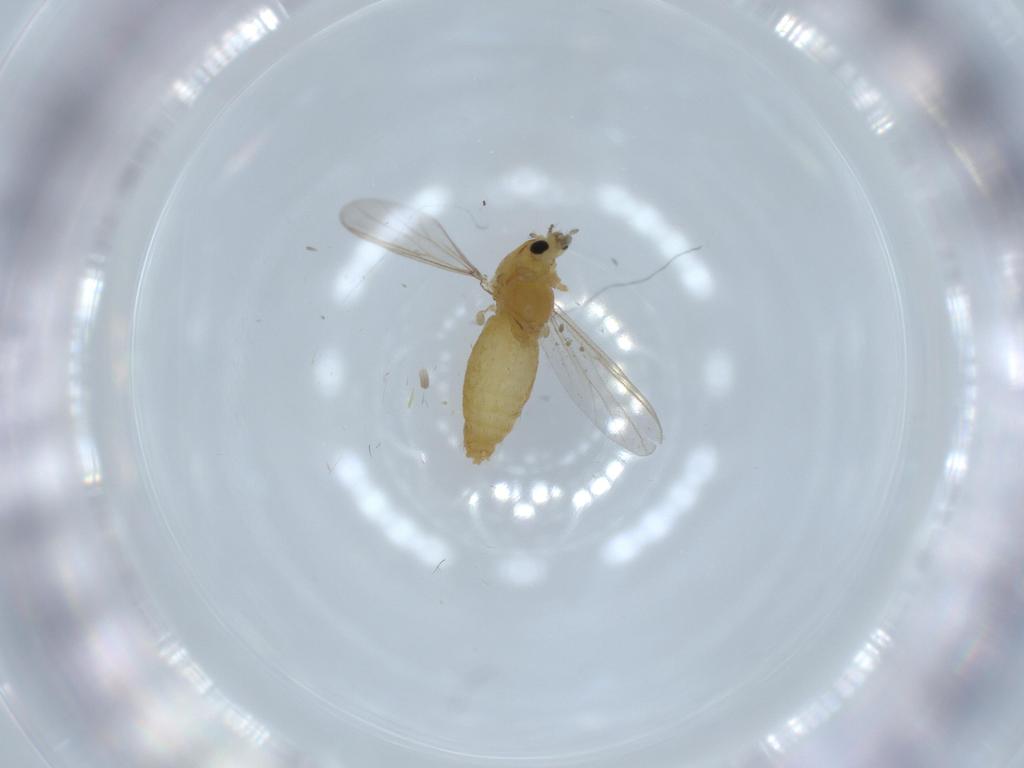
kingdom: Animalia
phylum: Arthropoda
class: Insecta
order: Diptera
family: Chironomidae
